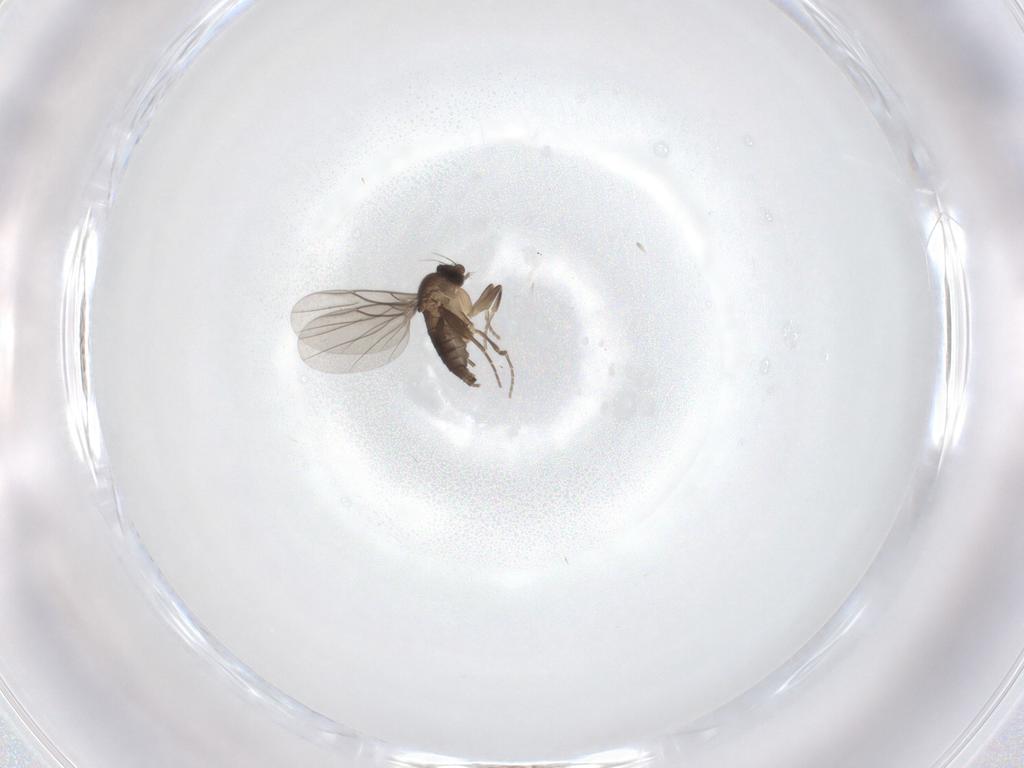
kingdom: Animalia
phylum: Arthropoda
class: Insecta
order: Diptera
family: Phoridae
